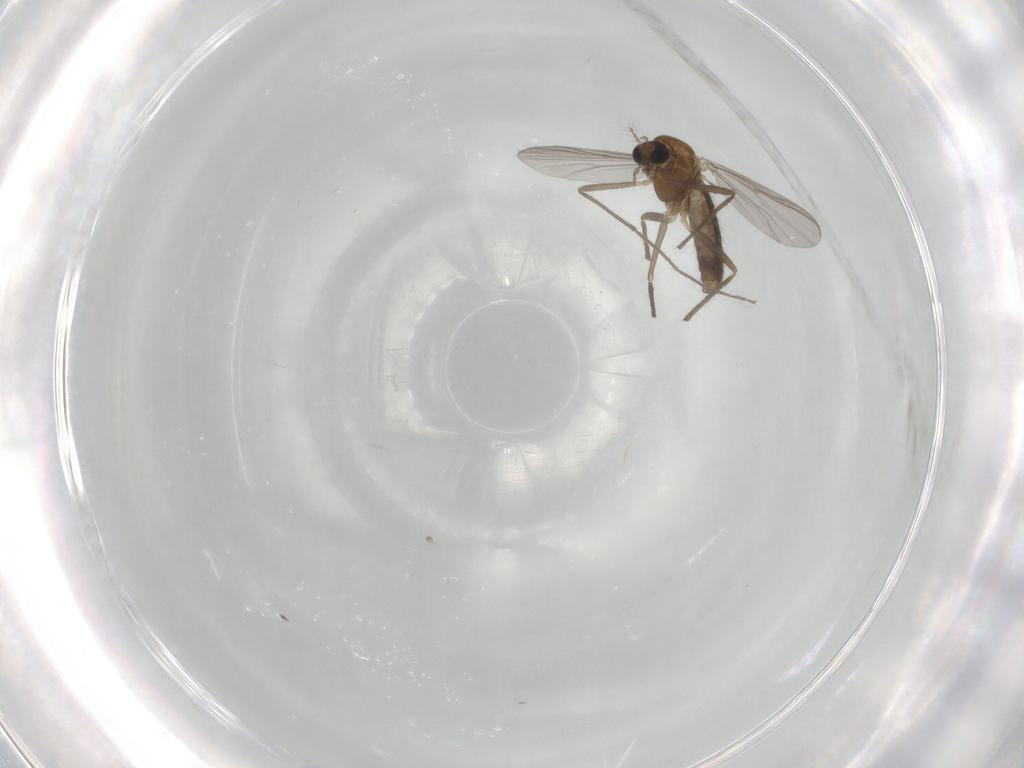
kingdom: Animalia
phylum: Arthropoda
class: Insecta
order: Diptera
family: Chironomidae
